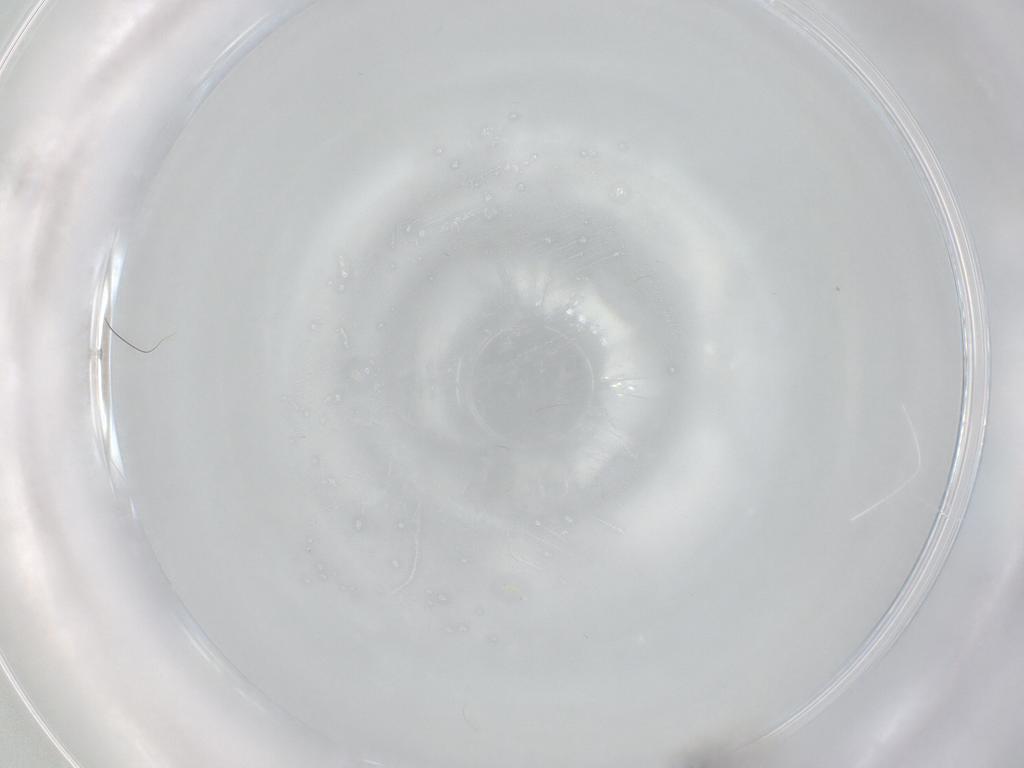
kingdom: Animalia
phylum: Arthropoda
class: Insecta
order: Diptera
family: Cecidomyiidae
